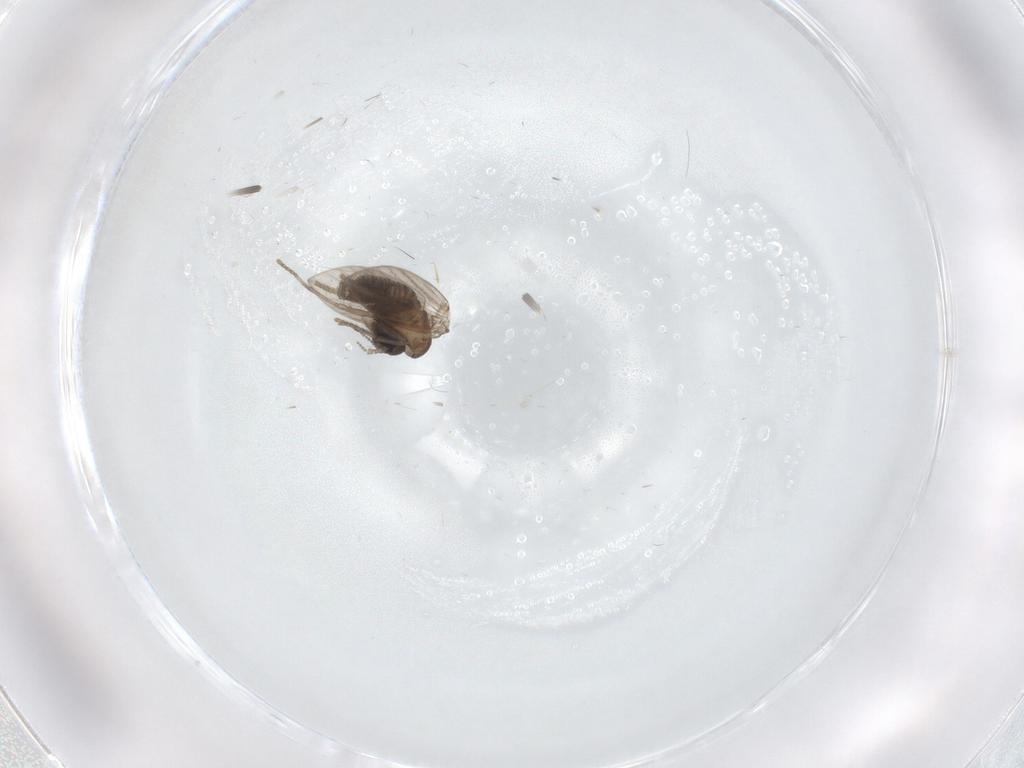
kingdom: Animalia
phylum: Arthropoda
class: Insecta
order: Diptera
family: Psychodidae
